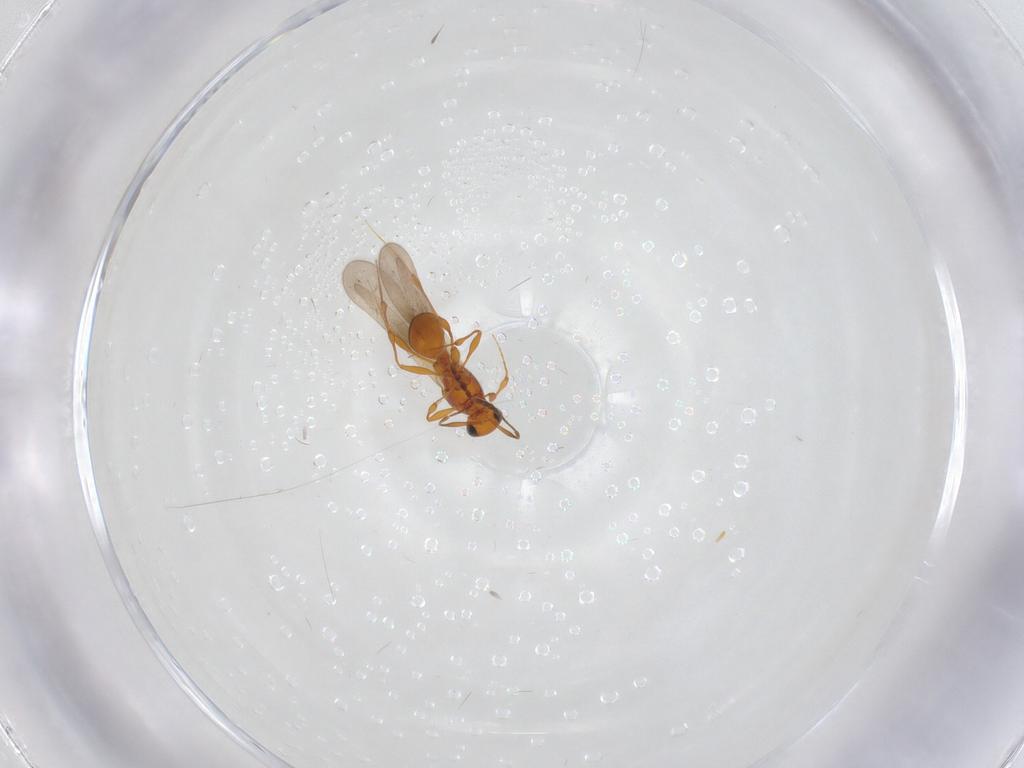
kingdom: Animalia
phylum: Arthropoda
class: Insecta
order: Hymenoptera
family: Platygastridae
